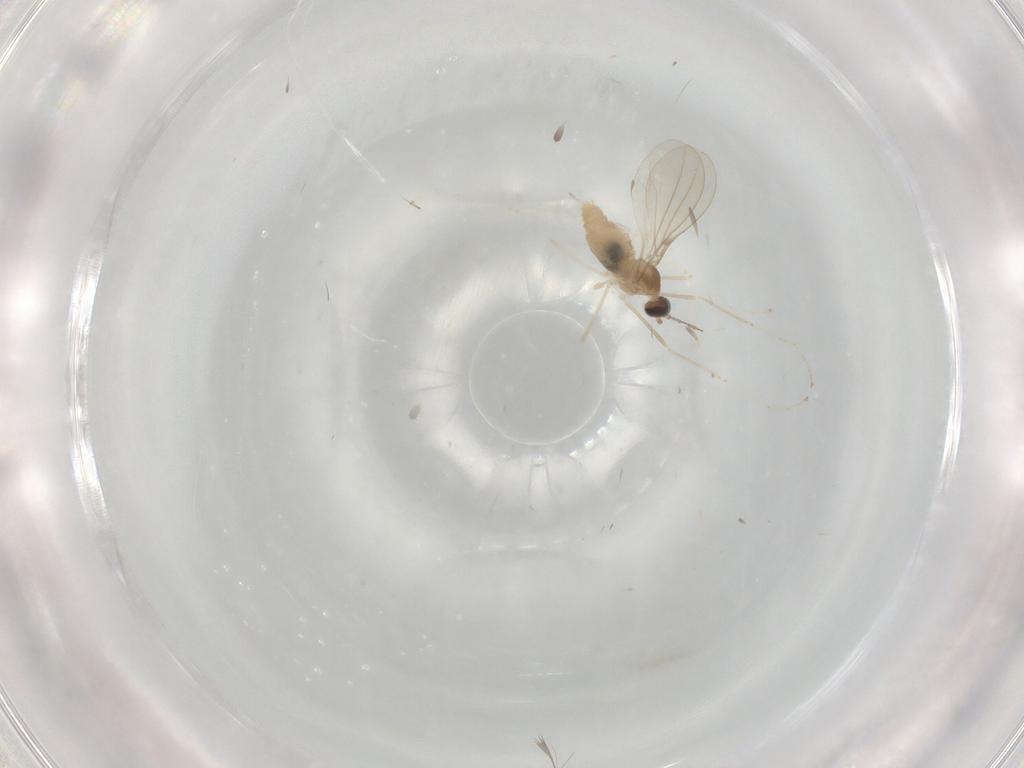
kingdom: Animalia
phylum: Arthropoda
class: Insecta
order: Diptera
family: Cecidomyiidae
